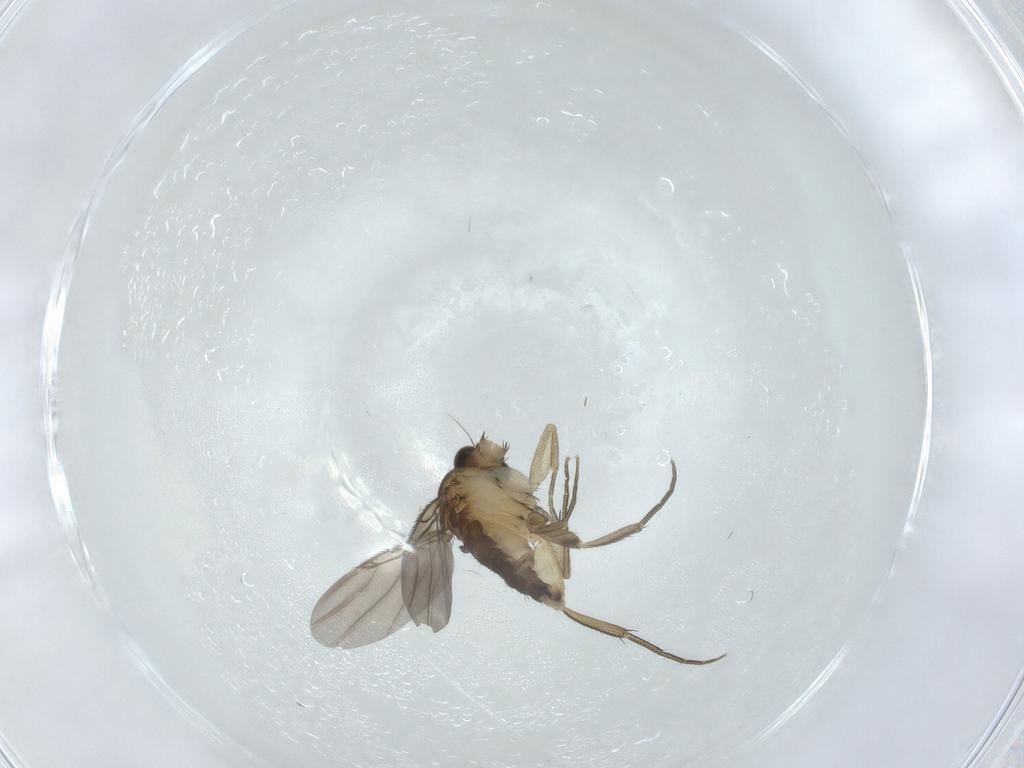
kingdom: Animalia
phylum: Arthropoda
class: Insecta
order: Diptera
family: Phoridae
